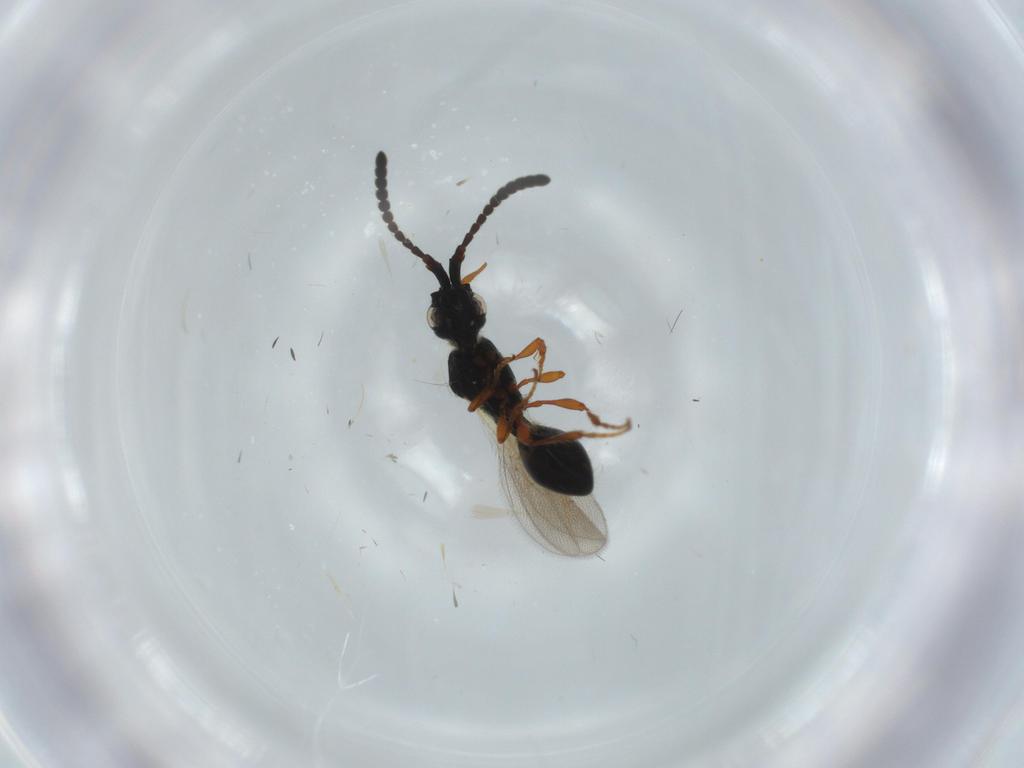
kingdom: Animalia
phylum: Arthropoda
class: Insecta
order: Hymenoptera
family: Diapriidae
